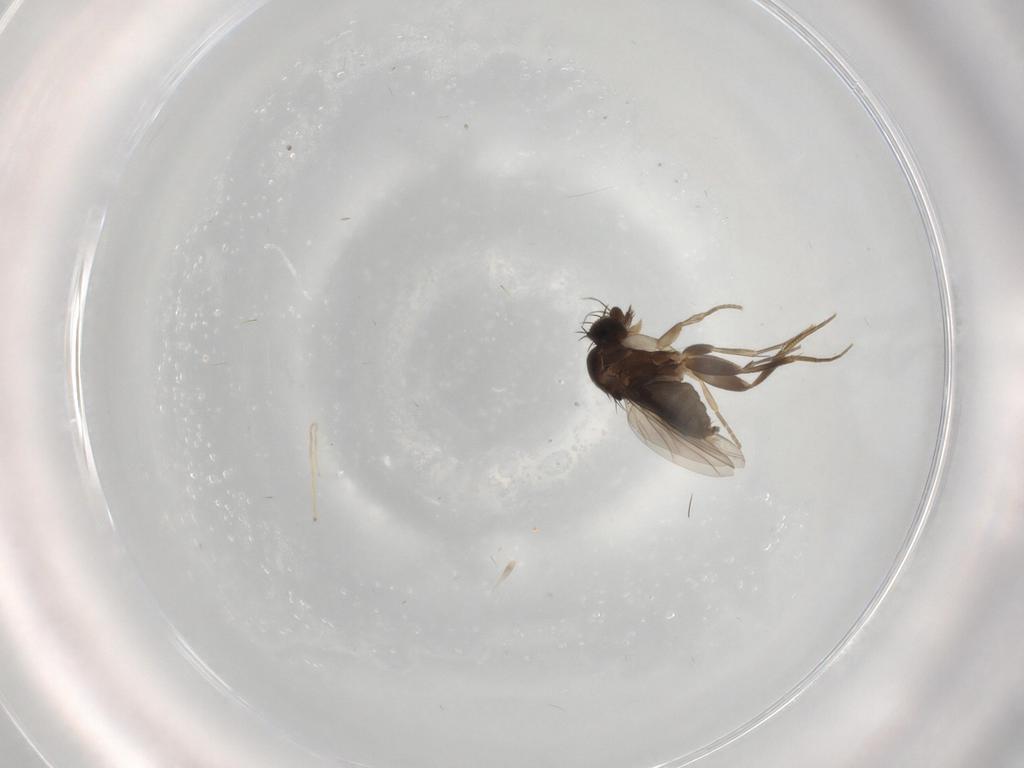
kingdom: Animalia
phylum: Arthropoda
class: Insecta
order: Diptera
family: Phoridae
